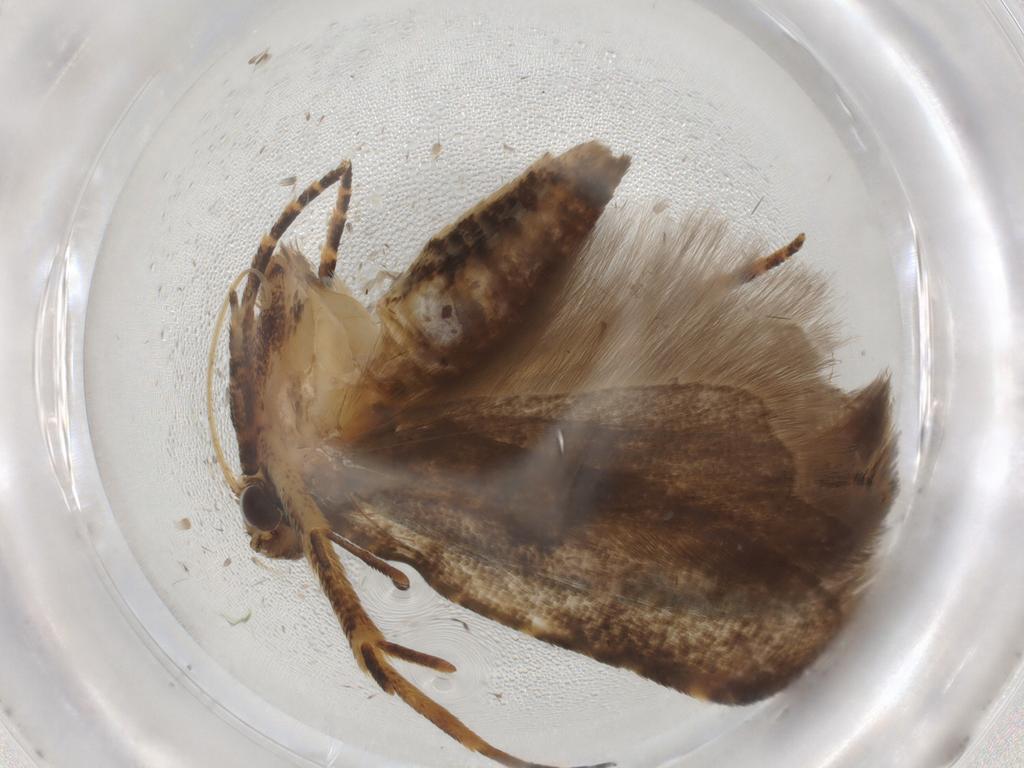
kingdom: Animalia
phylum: Arthropoda
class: Insecta
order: Lepidoptera
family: Gelechiidae
